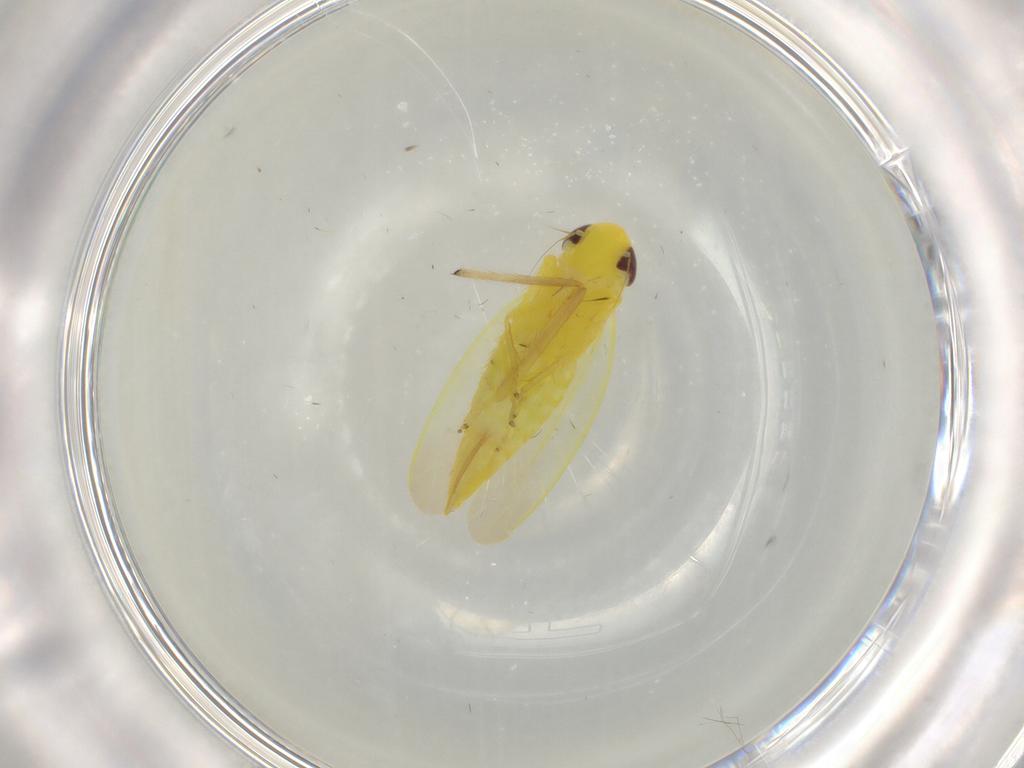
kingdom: Animalia
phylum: Arthropoda
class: Insecta
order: Hemiptera
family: Cicadellidae
